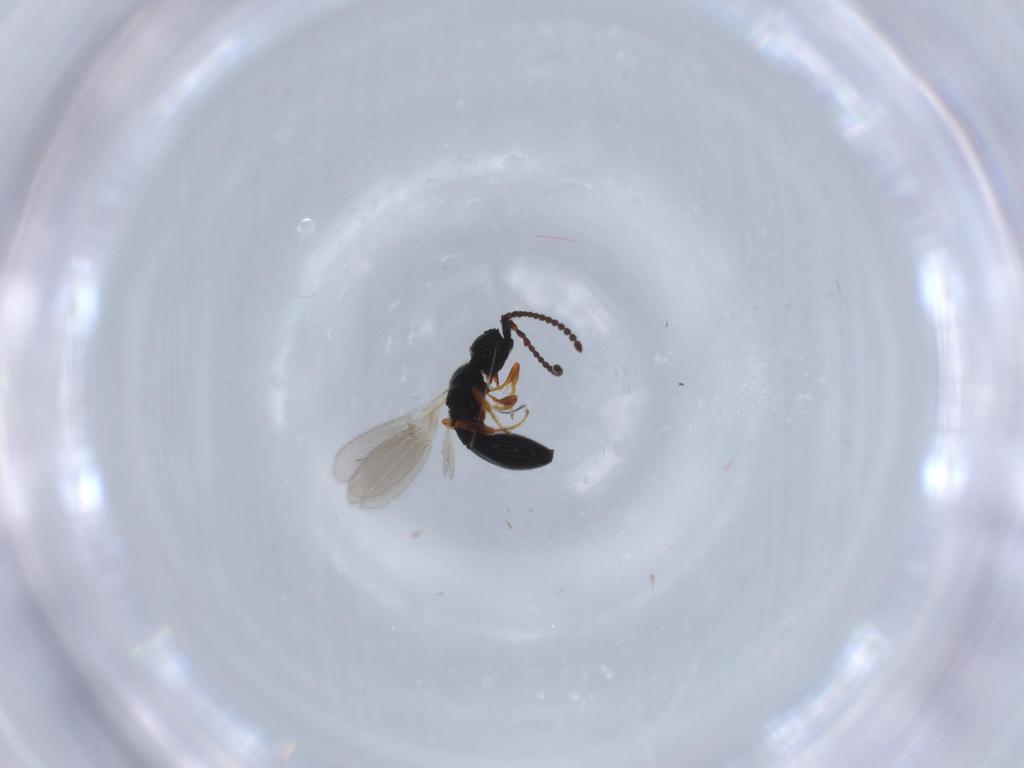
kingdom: Animalia
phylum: Arthropoda
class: Insecta
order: Hymenoptera
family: Diapriidae
